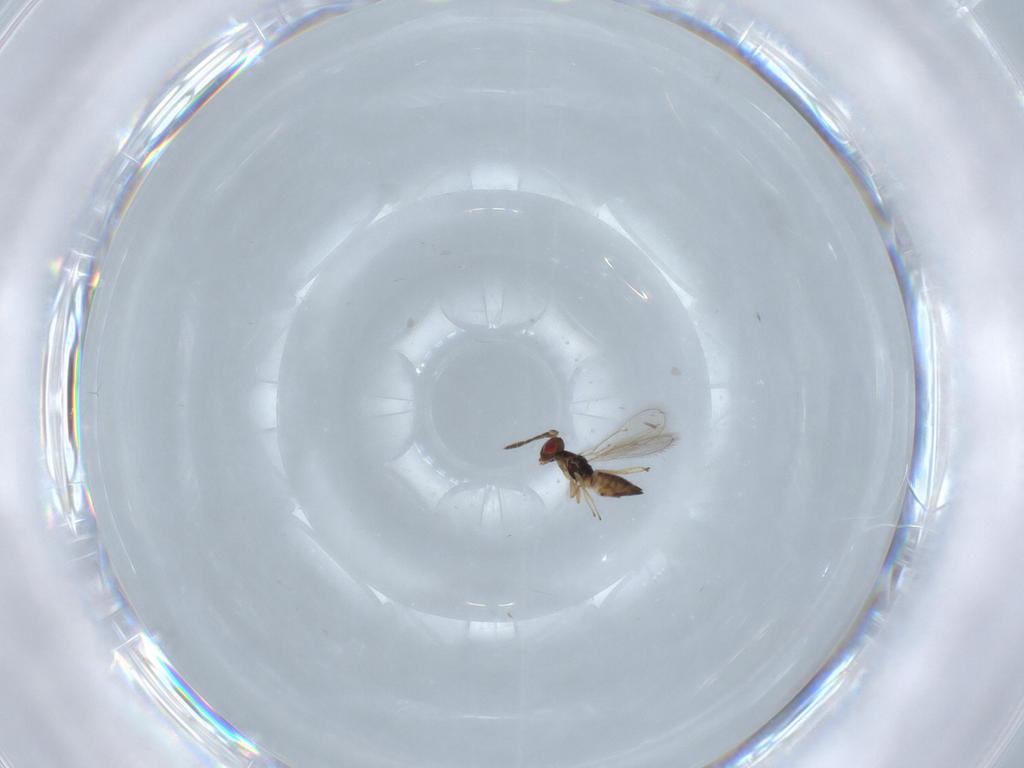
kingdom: Animalia
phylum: Arthropoda
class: Insecta
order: Hymenoptera
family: Eulophidae
